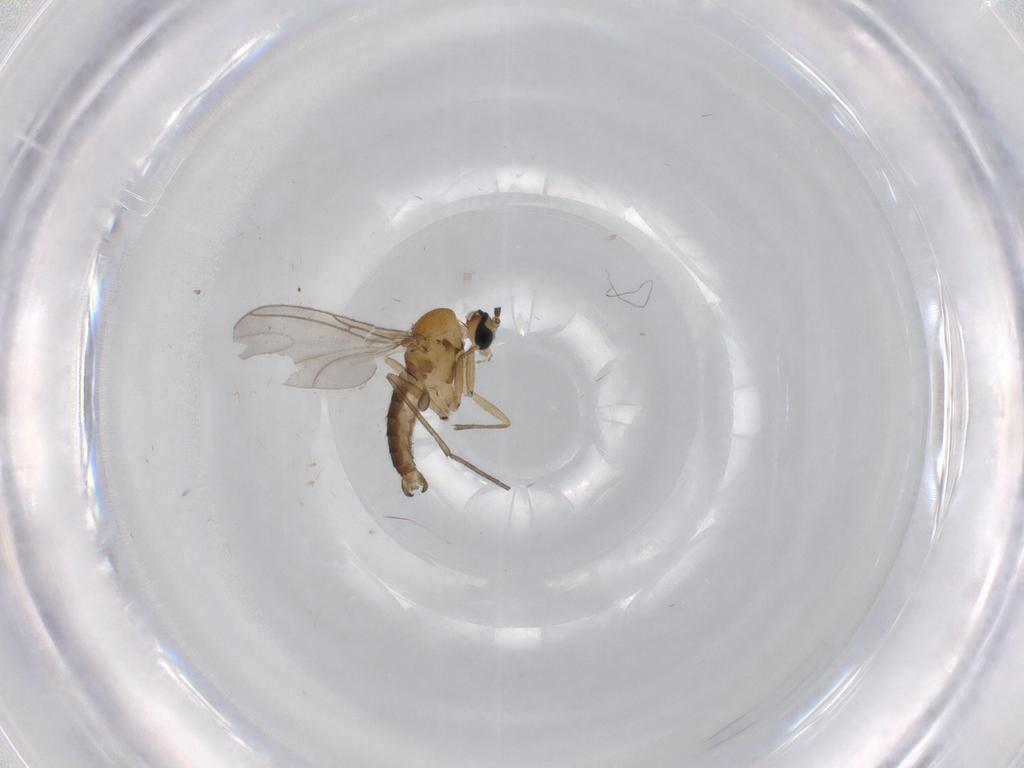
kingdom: Animalia
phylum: Arthropoda
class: Insecta
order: Diptera
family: Sciaridae
